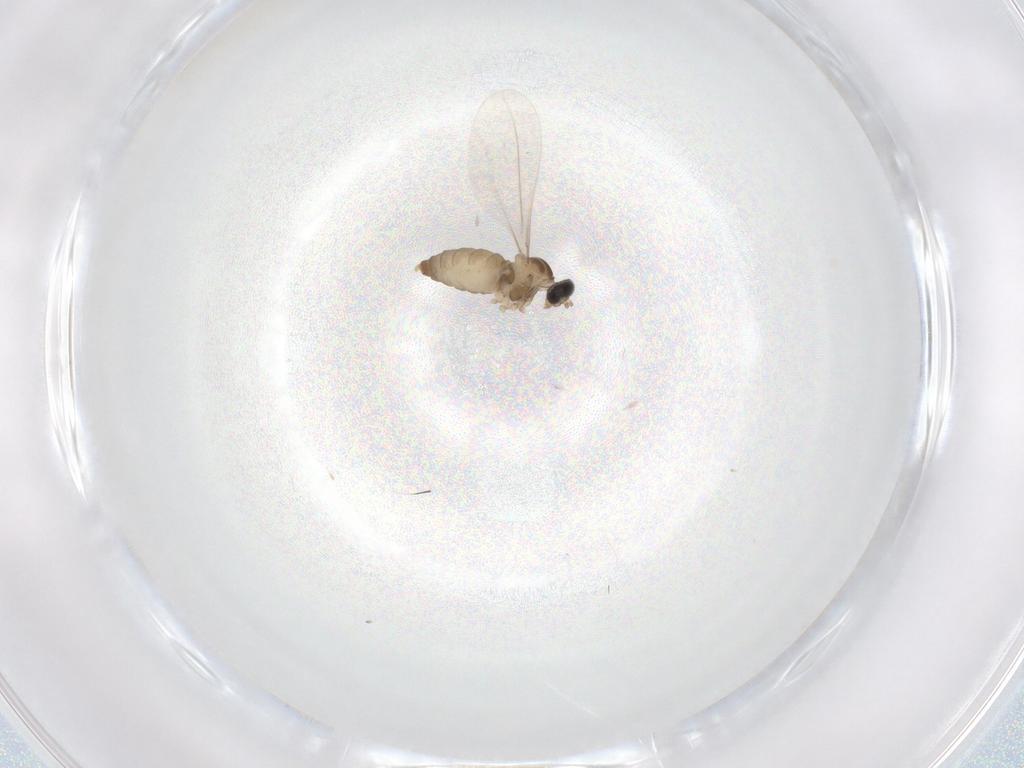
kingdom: Animalia
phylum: Arthropoda
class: Insecta
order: Diptera
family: Cecidomyiidae
